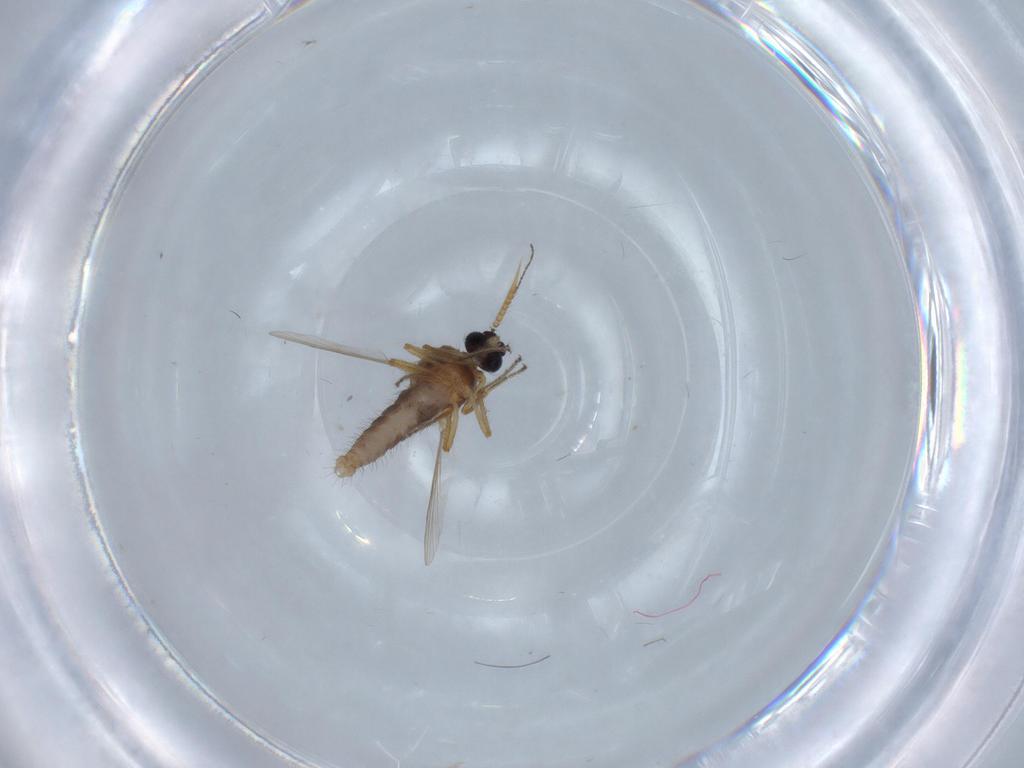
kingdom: Animalia
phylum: Arthropoda
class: Insecta
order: Diptera
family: Ceratopogonidae
